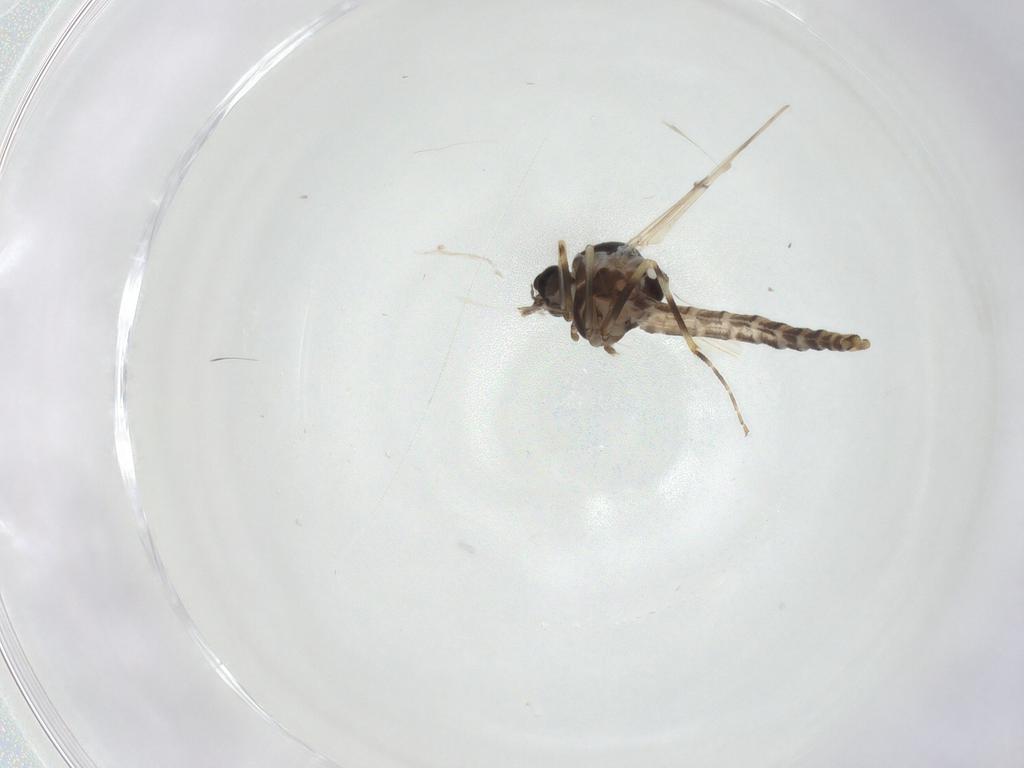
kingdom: Animalia
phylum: Arthropoda
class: Insecta
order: Diptera
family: Ceratopogonidae
